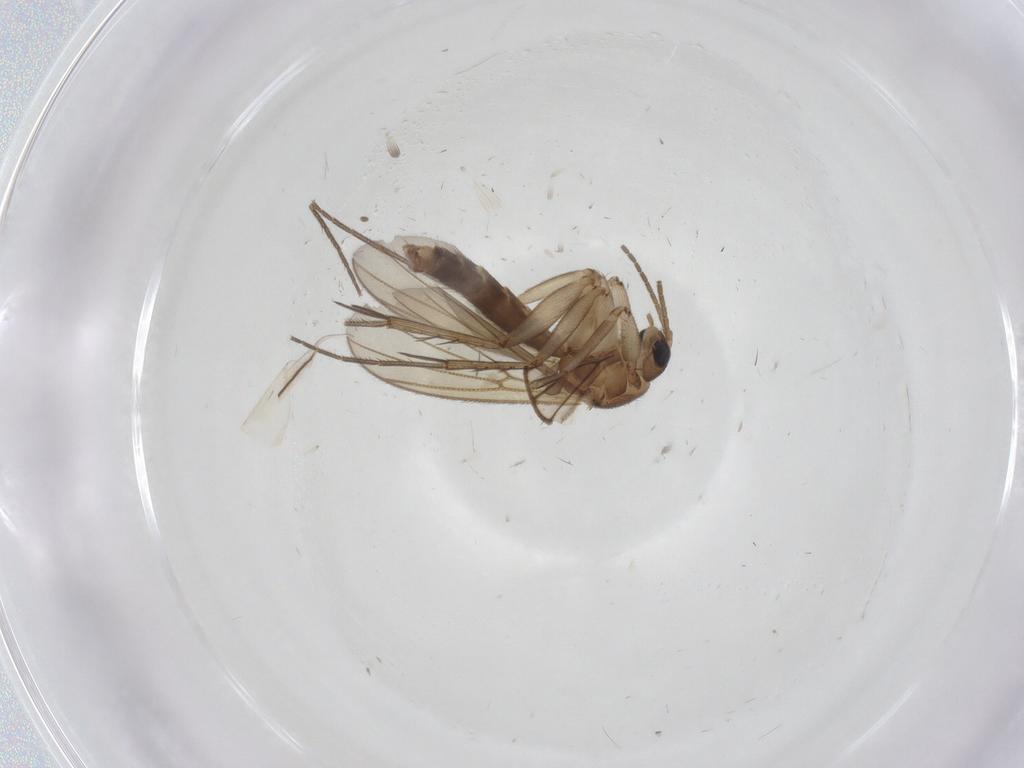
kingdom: Animalia
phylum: Arthropoda
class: Insecta
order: Hemiptera
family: Cixiidae
